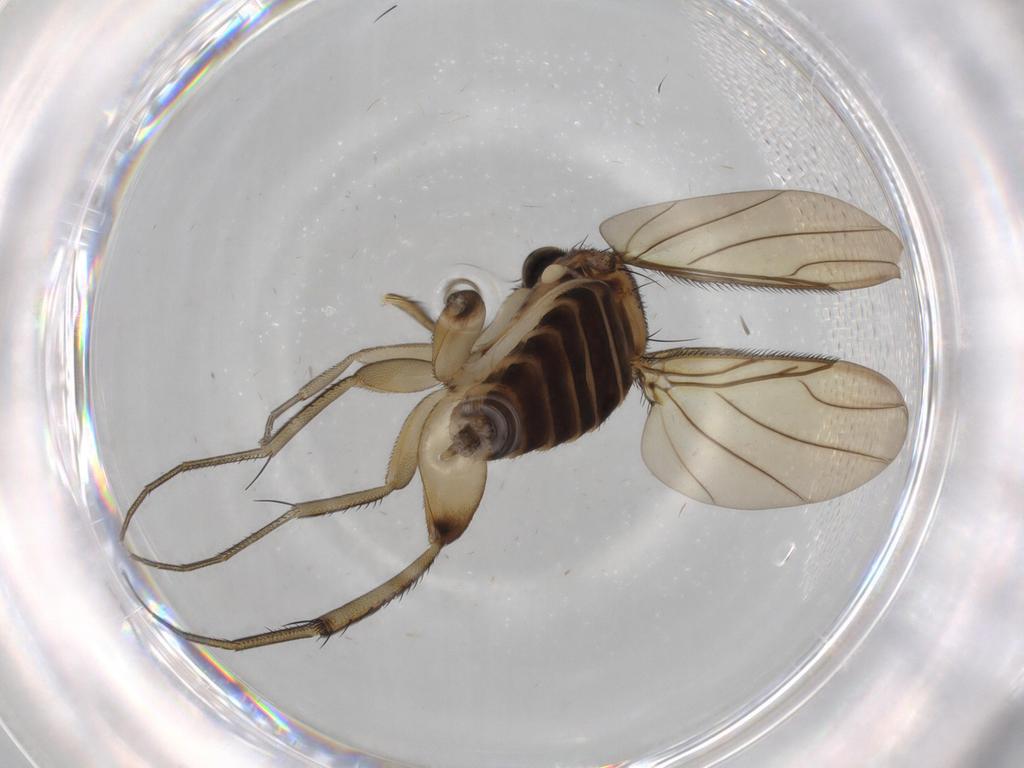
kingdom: Animalia
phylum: Arthropoda
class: Insecta
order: Diptera
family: Phoridae
